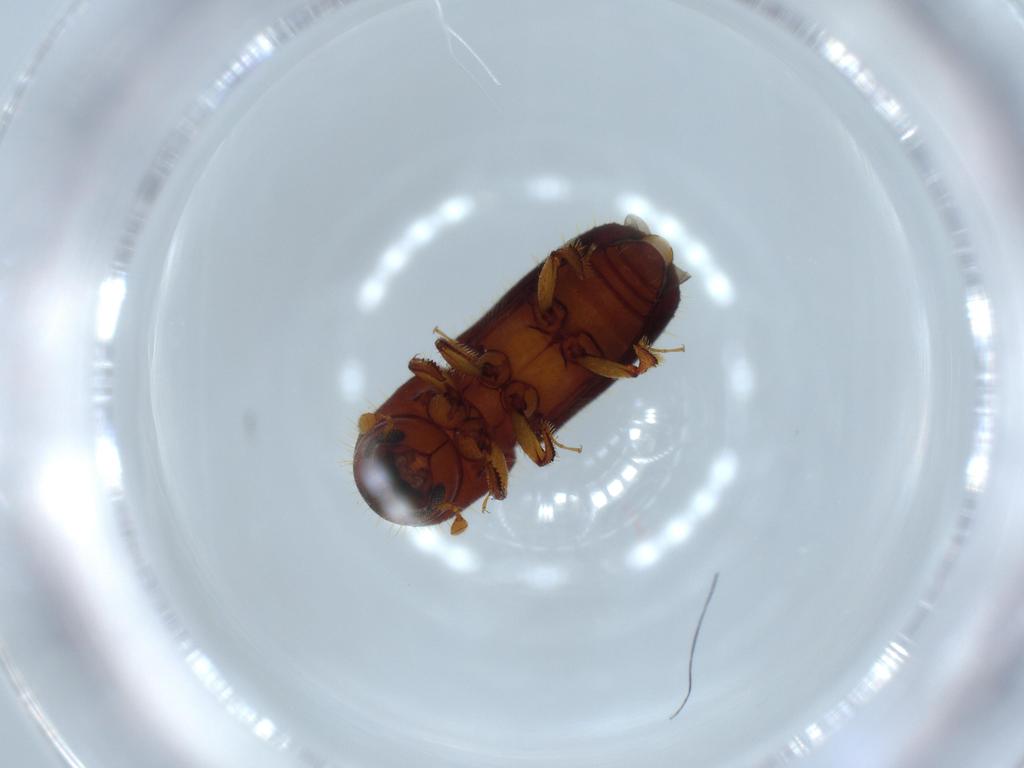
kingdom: Animalia
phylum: Arthropoda
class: Insecta
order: Coleoptera
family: Curculionidae
